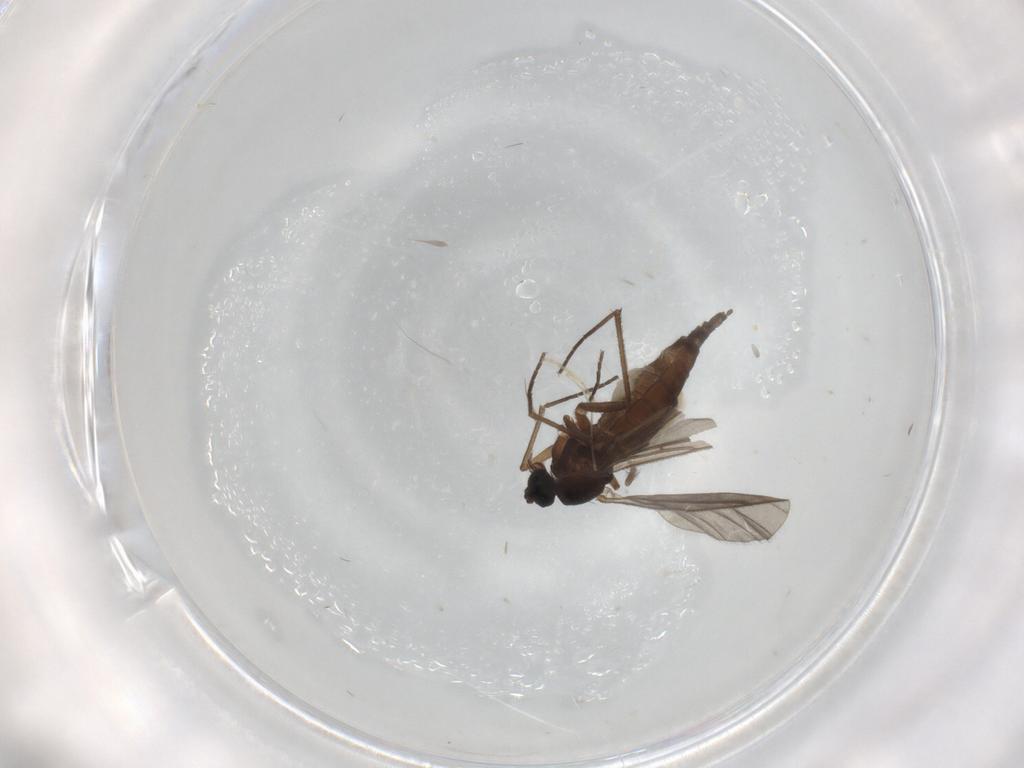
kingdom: Animalia
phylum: Arthropoda
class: Insecta
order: Diptera
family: Sciaridae
